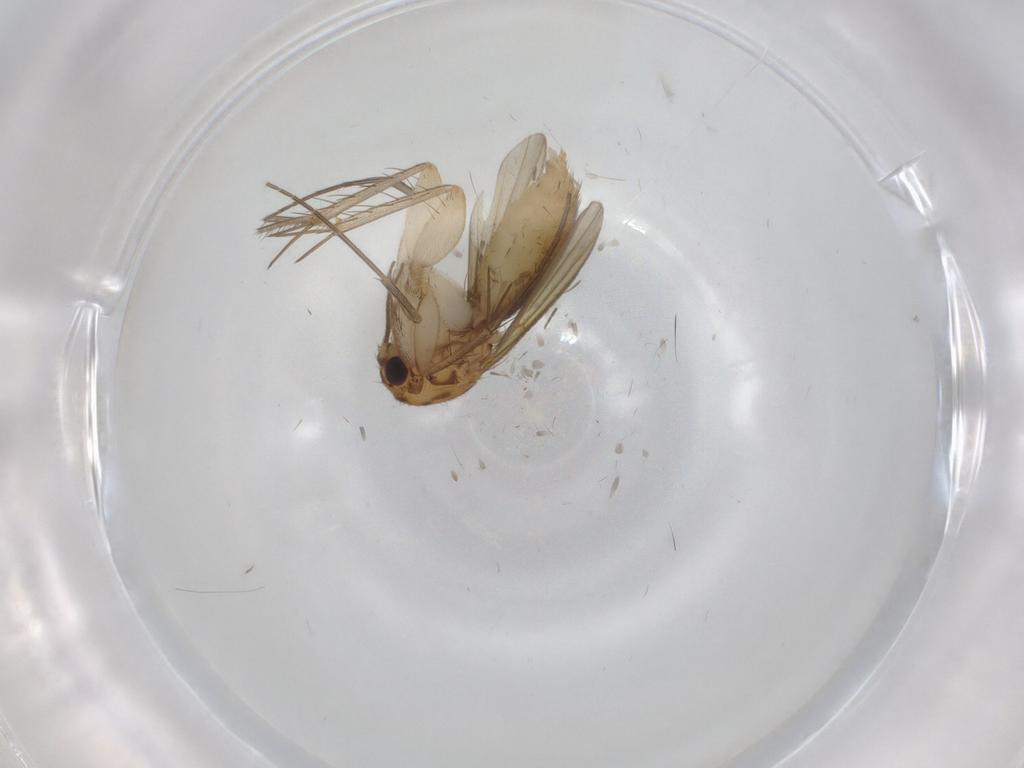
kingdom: Animalia
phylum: Arthropoda
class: Insecta
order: Diptera
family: Mycetophilidae
